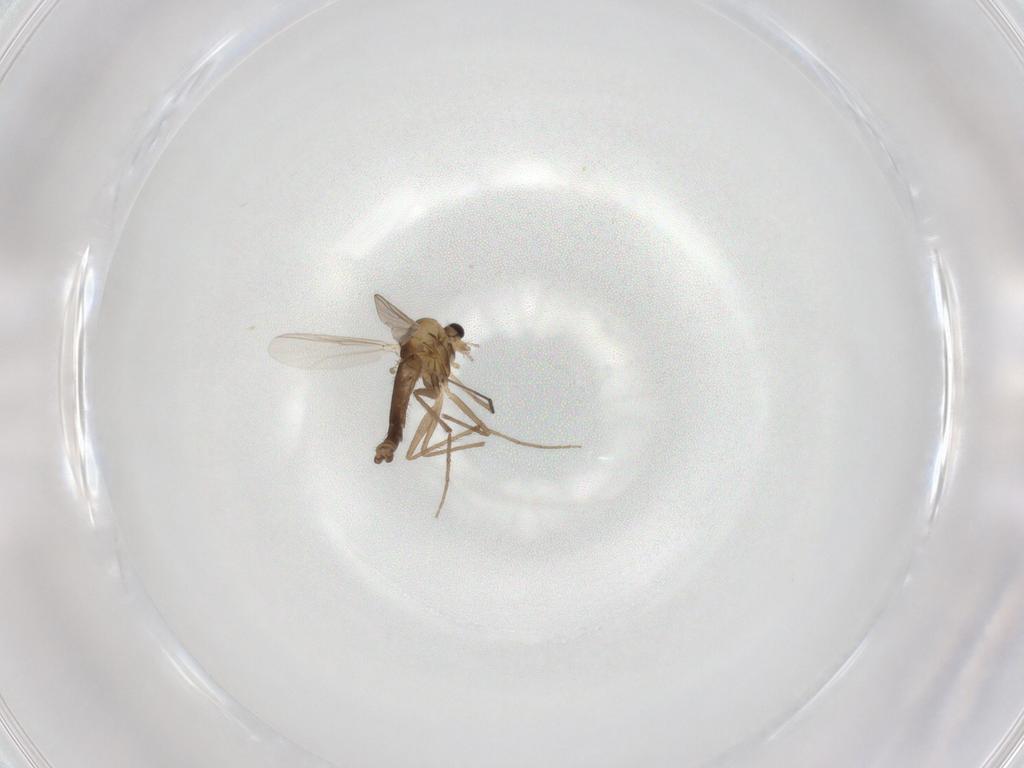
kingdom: Animalia
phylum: Arthropoda
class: Insecta
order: Diptera
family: Chironomidae
